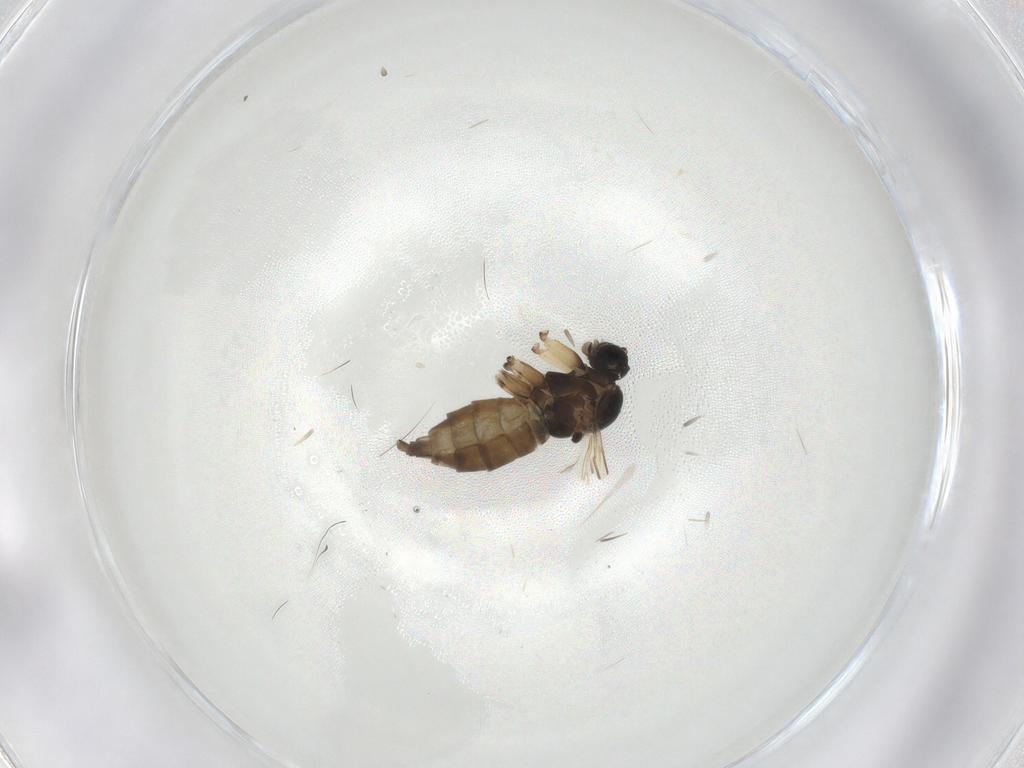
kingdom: Animalia
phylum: Arthropoda
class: Insecta
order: Diptera
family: Sciaridae
